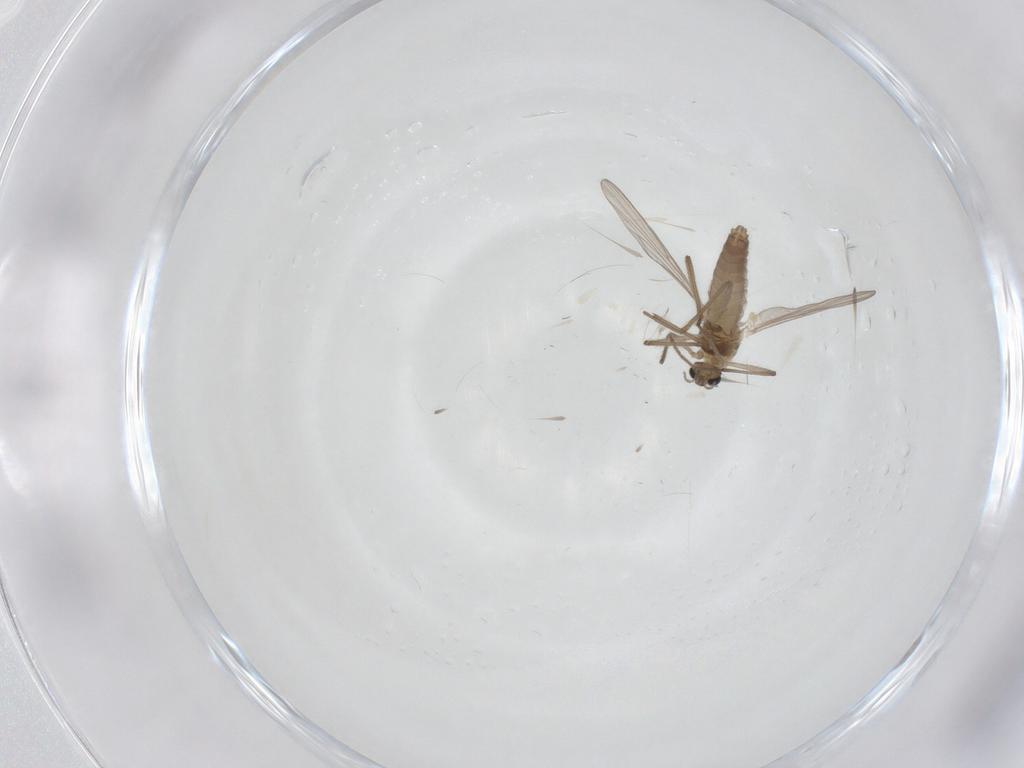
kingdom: Animalia
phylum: Arthropoda
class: Insecta
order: Diptera
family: Chironomidae
